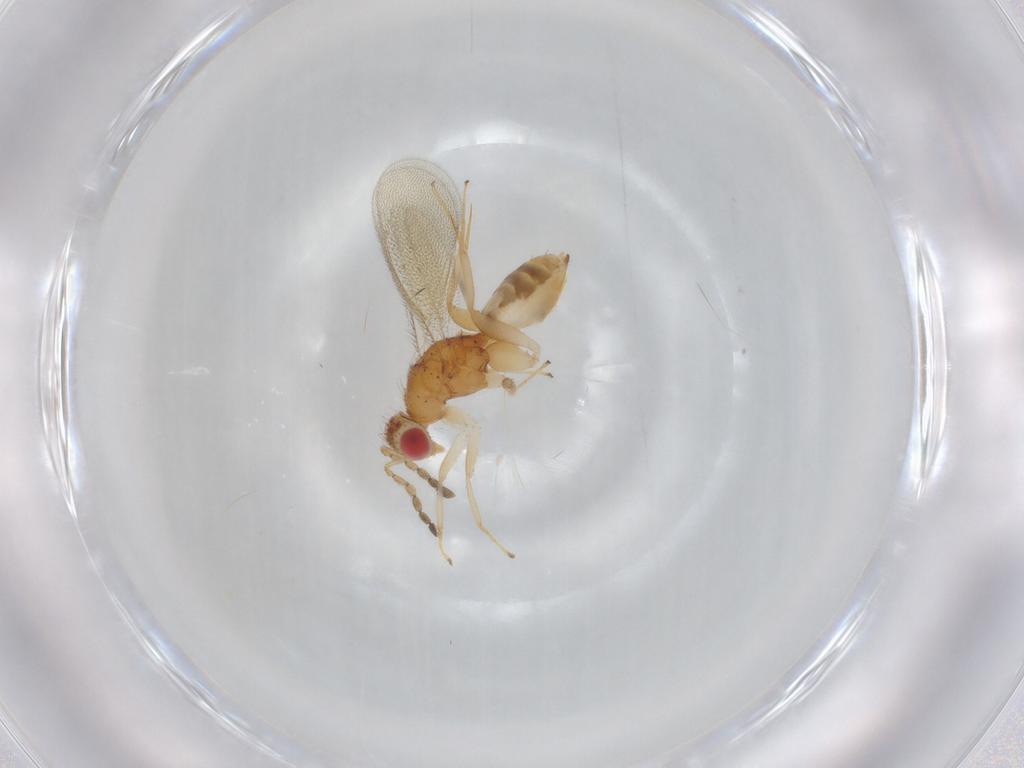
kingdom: Animalia
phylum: Arthropoda
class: Insecta
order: Hymenoptera
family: Eulophidae
